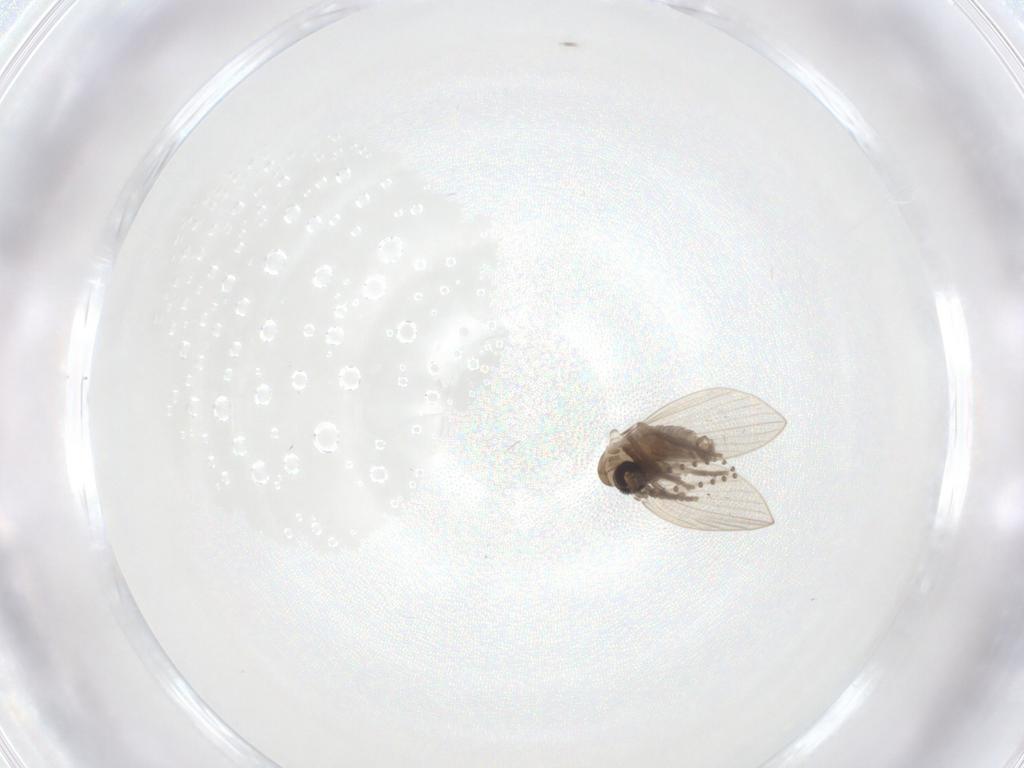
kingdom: Animalia
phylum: Arthropoda
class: Insecta
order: Diptera
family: Psychodidae
